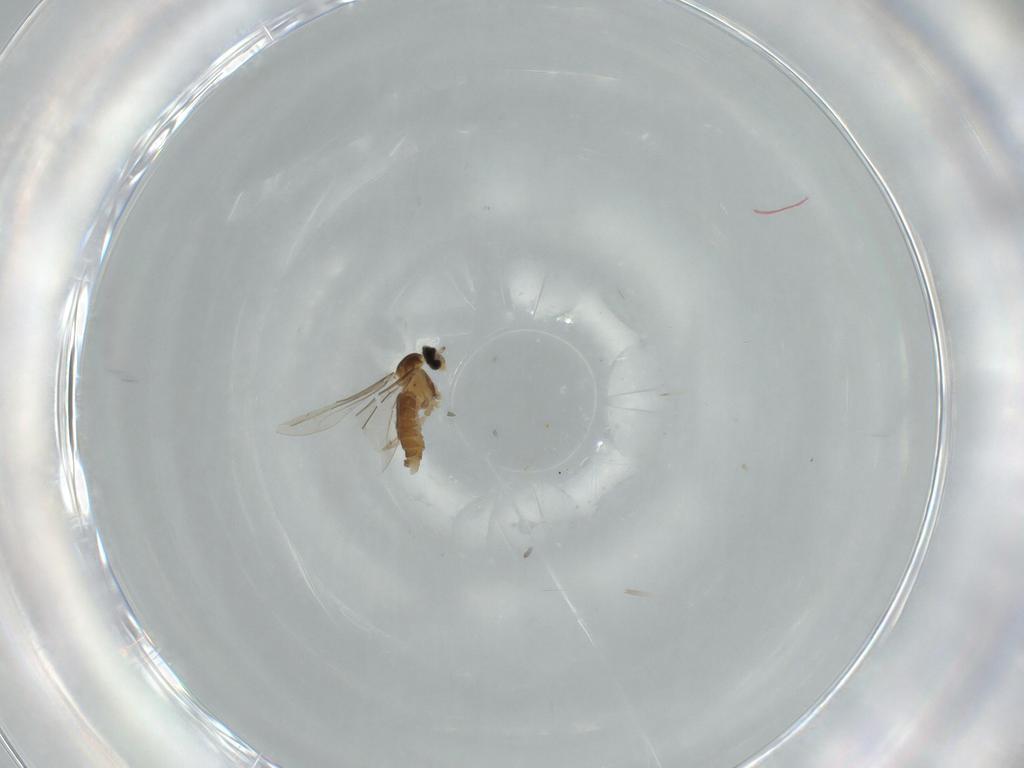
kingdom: Animalia
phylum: Arthropoda
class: Insecta
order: Diptera
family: Cecidomyiidae
